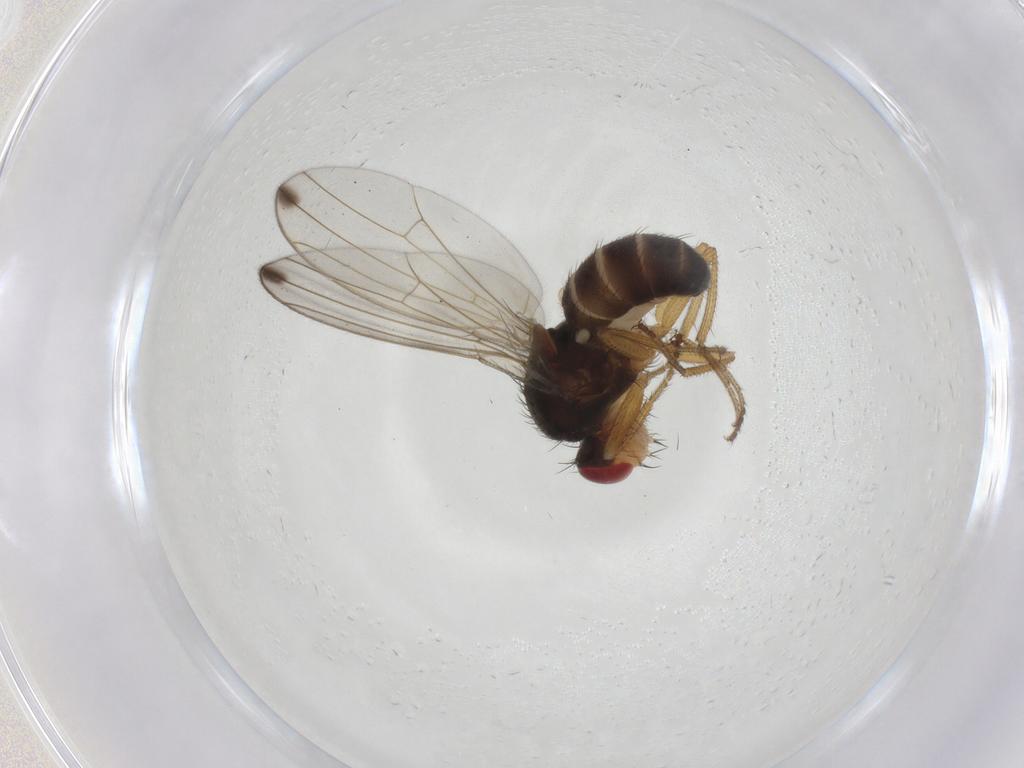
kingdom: Animalia
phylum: Arthropoda
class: Insecta
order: Diptera
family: Drosophilidae
